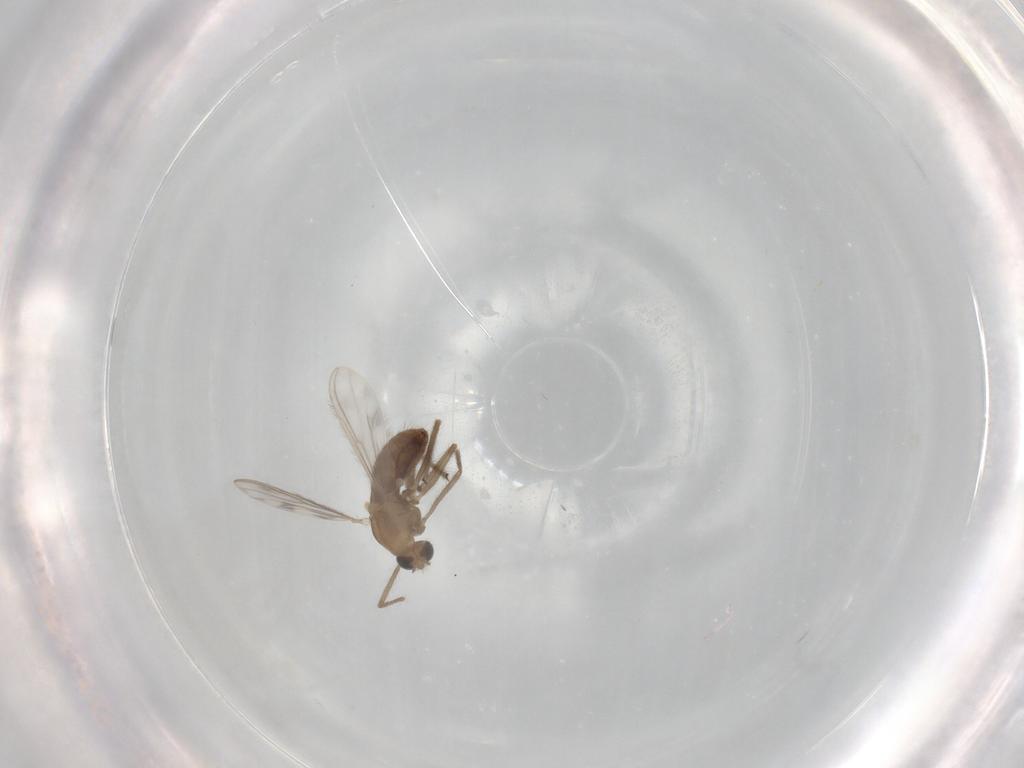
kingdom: Animalia
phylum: Arthropoda
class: Insecta
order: Diptera
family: Chironomidae
